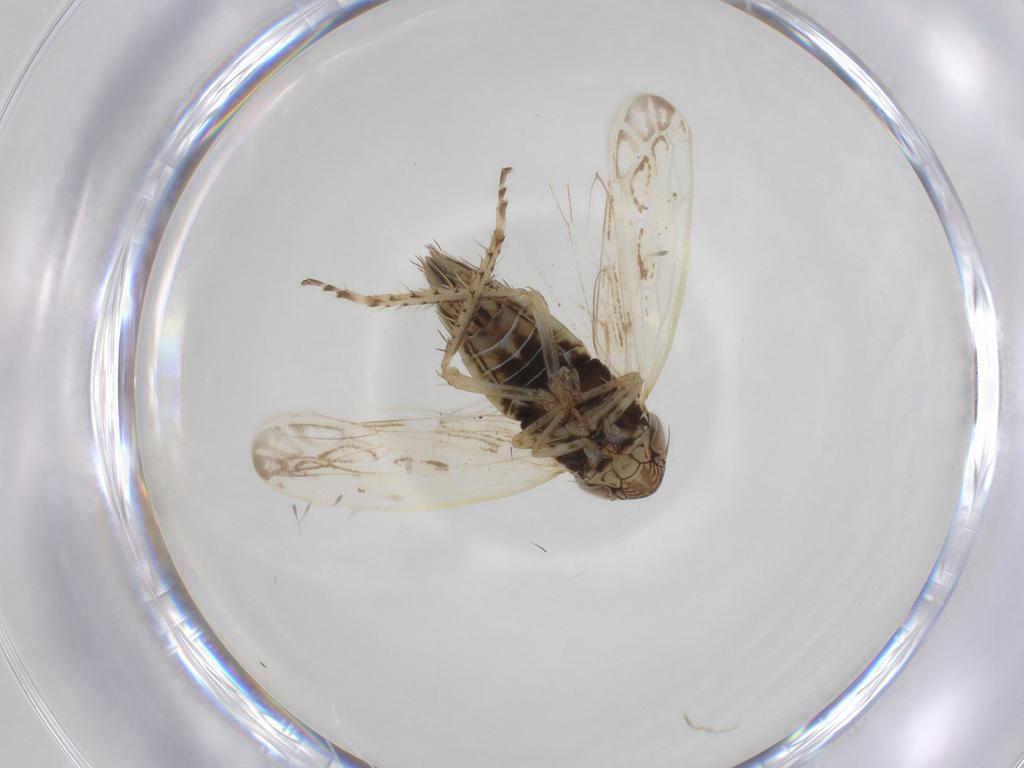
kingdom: Animalia
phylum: Arthropoda
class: Insecta
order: Hemiptera
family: Cicadellidae
